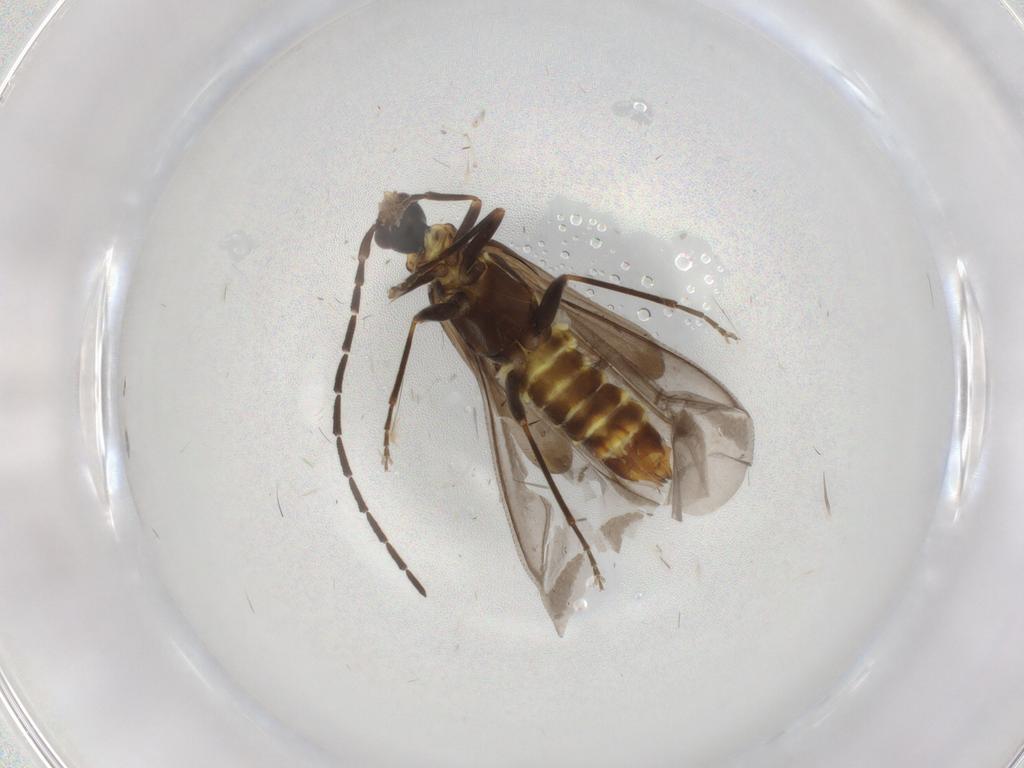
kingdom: Animalia
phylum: Arthropoda
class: Insecta
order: Coleoptera
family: Cantharidae
